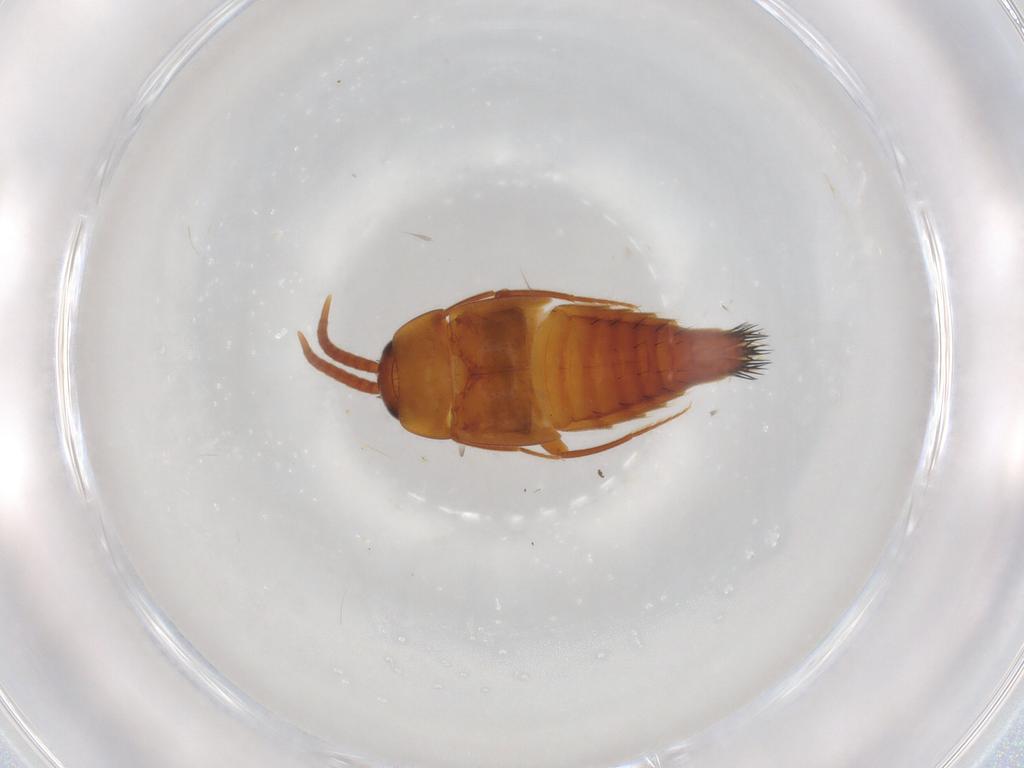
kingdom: Animalia
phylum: Arthropoda
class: Insecta
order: Coleoptera
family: Staphylinidae
